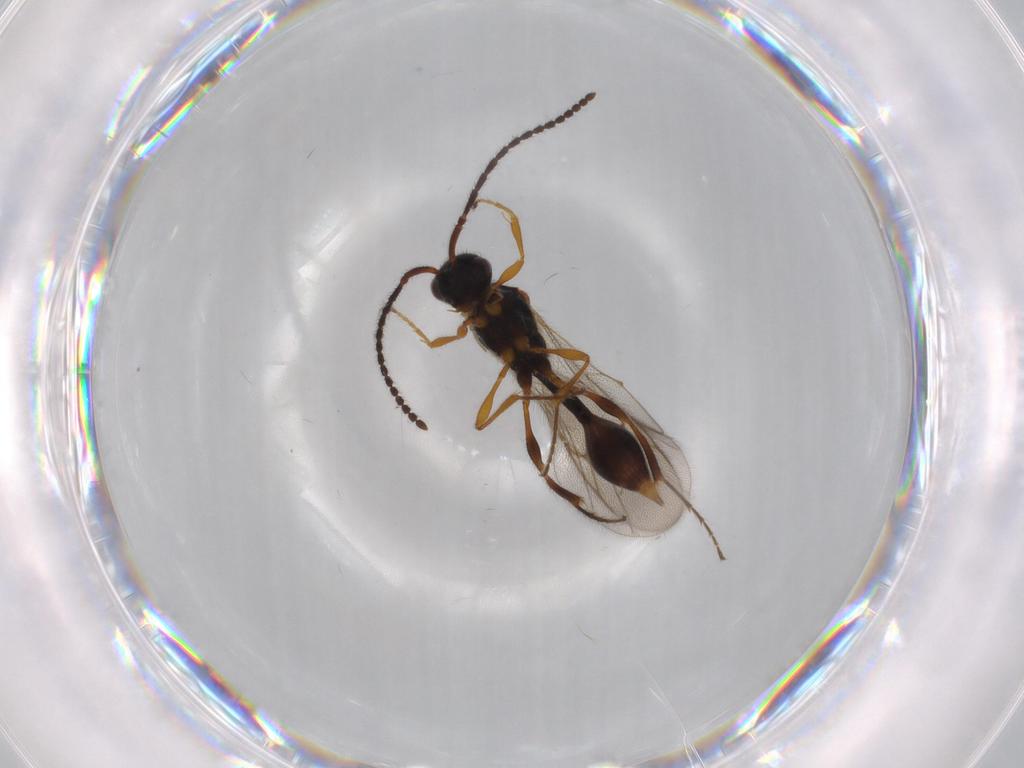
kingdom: Animalia
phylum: Arthropoda
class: Insecta
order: Hymenoptera
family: Diapriidae
